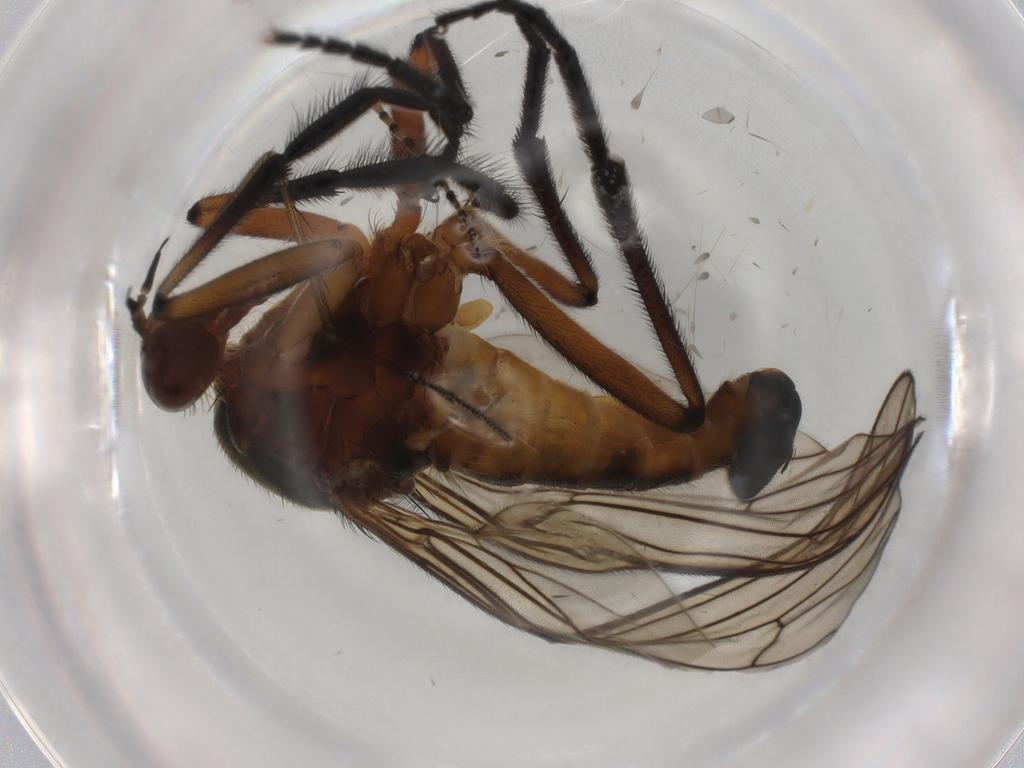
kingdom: Animalia
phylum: Arthropoda
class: Insecta
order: Diptera
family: Empididae
